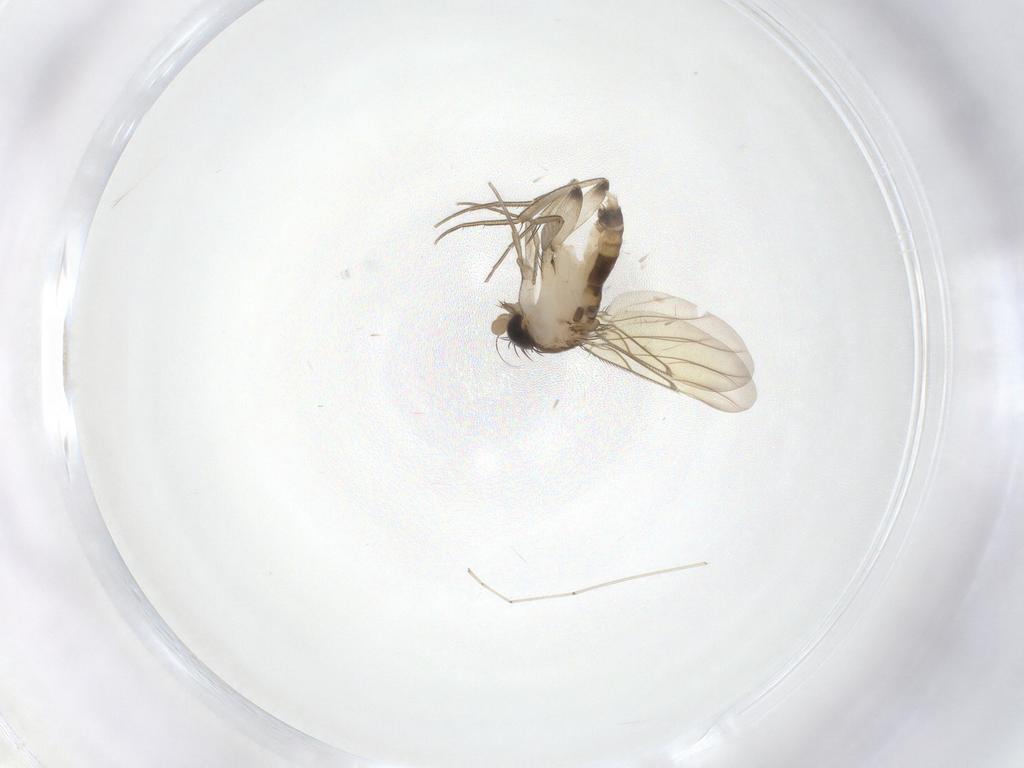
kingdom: Animalia
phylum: Arthropoda
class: Insecta
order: Diptera
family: Phoridae
